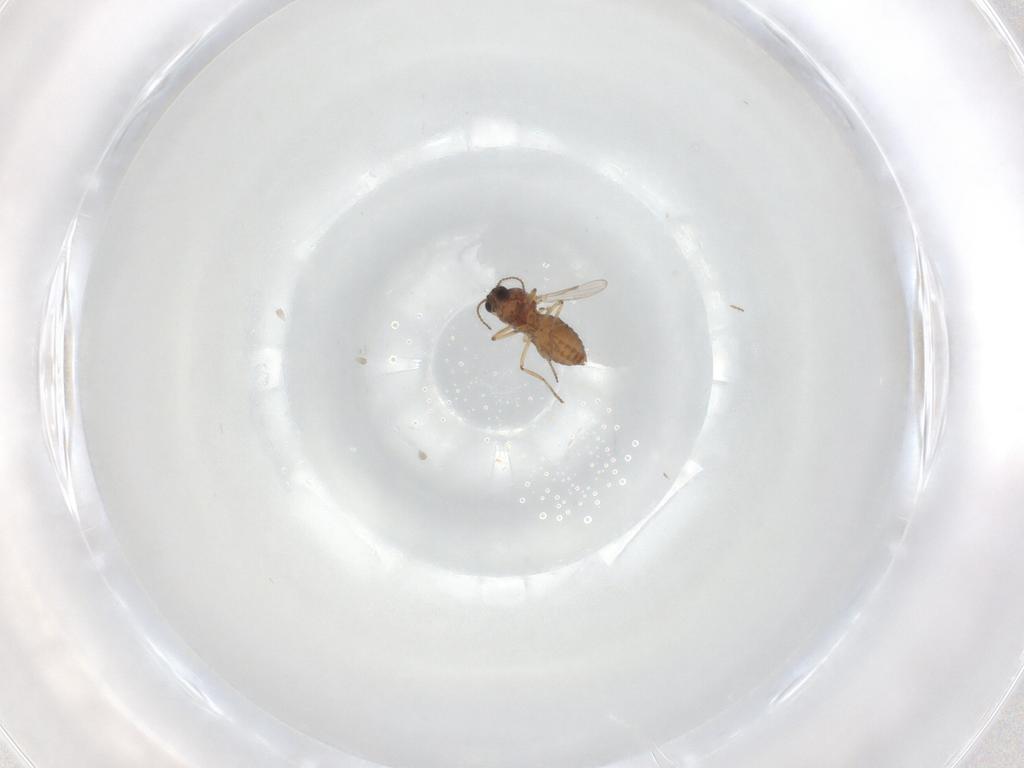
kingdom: Animalia
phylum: Arthropoda
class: Insecta
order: Diptera
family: Ceratopogonidae
